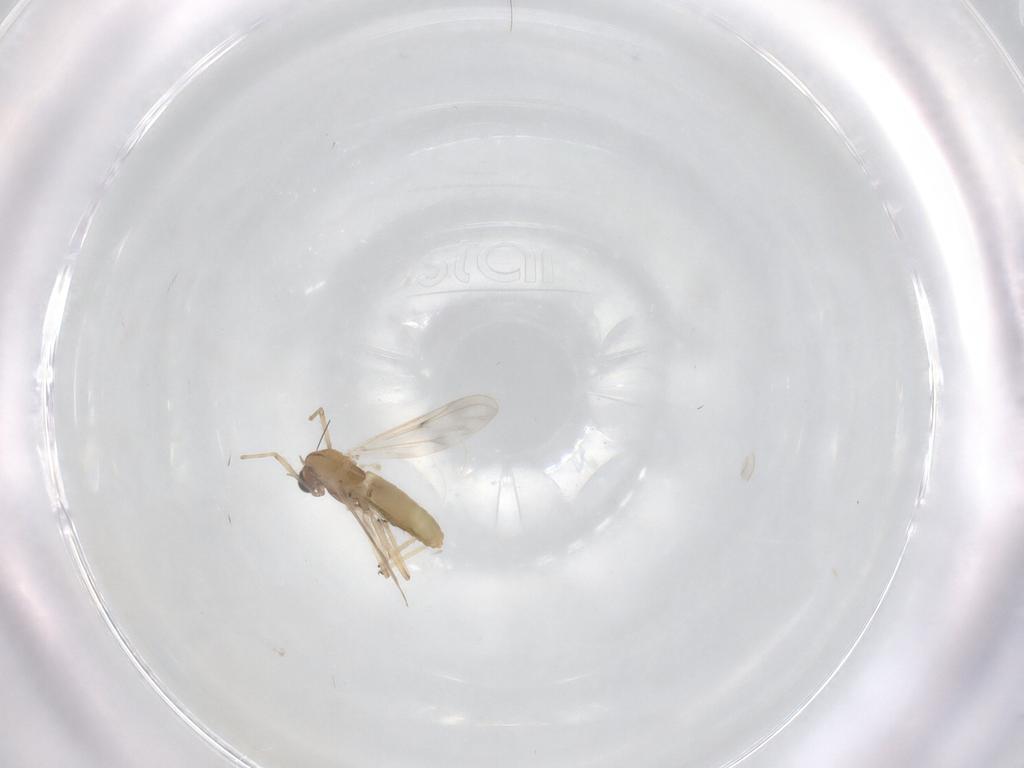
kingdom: Animalia
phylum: Arthropoda
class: Insecta
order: Diptera
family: Chironomidae
